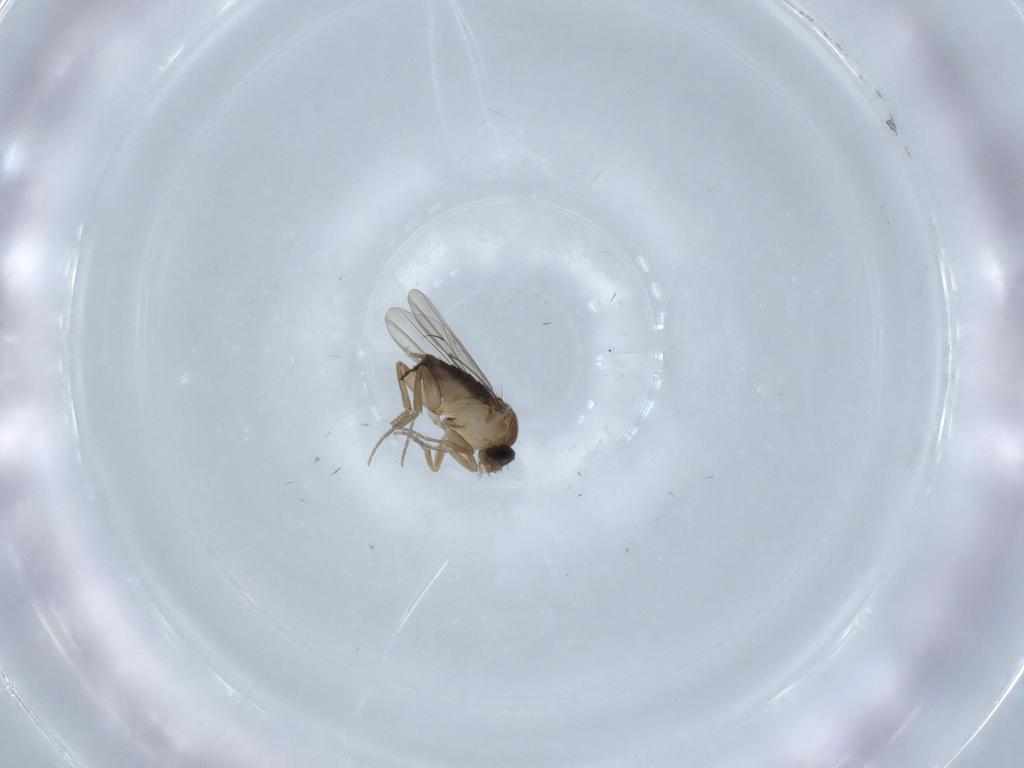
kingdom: Animalia
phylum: Arthropoda
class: Insecta
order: Diptera
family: Phoridae
